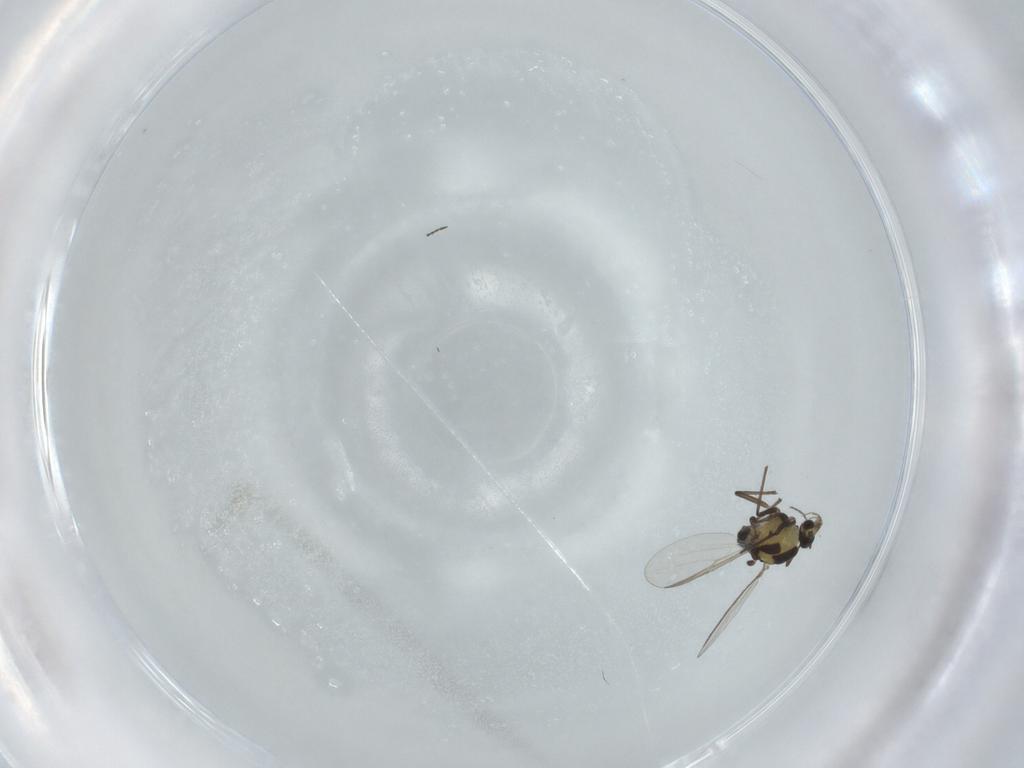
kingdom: Animalia
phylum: Arthropoda
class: Insecta
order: Diptera
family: Chironomidae
